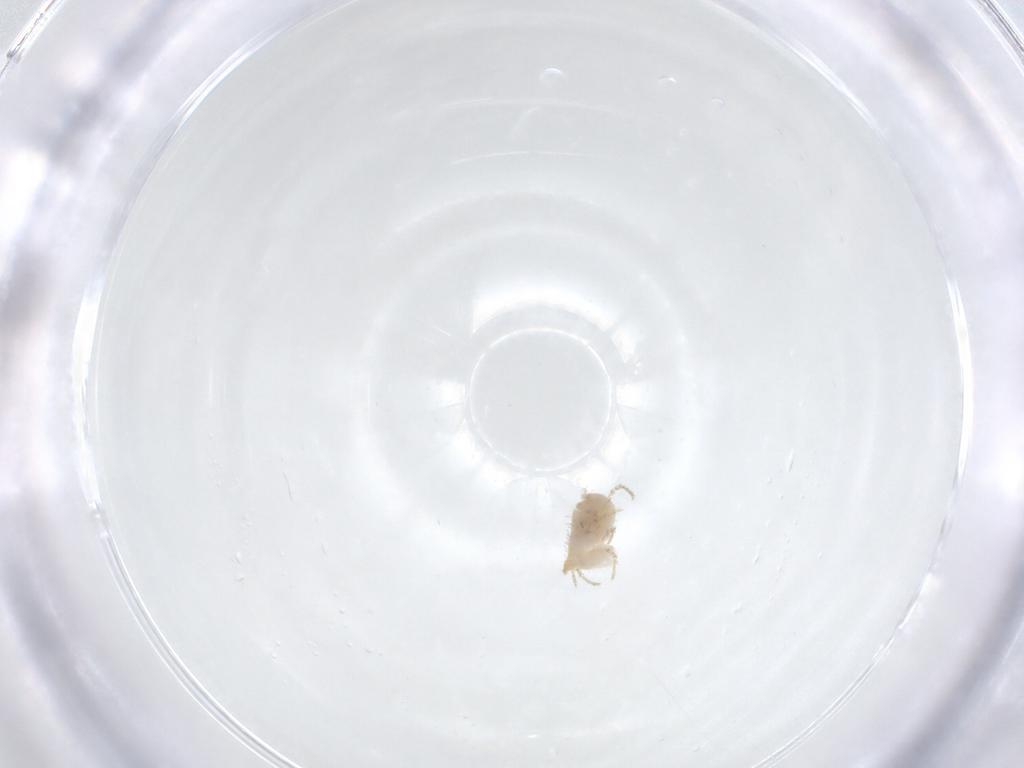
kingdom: Animalia
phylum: Arthropoda
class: Insecta
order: Diptera
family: Tachinidae
